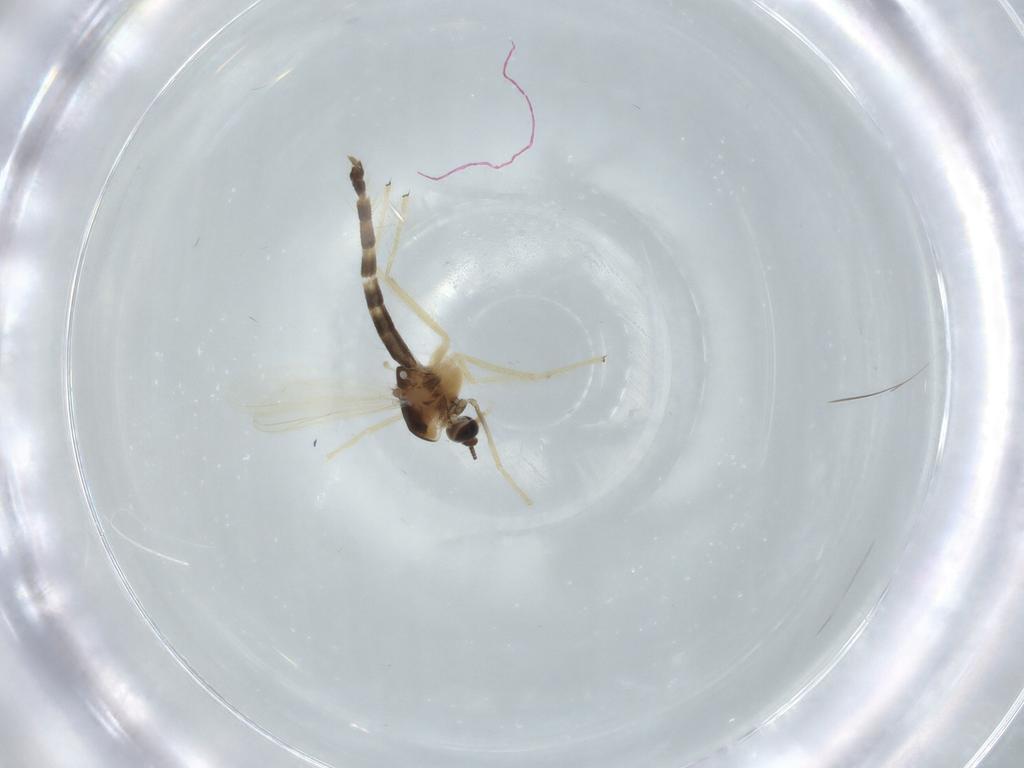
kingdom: Animalia
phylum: Arthropoda
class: Insecta
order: Diptera
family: Chironomidae
